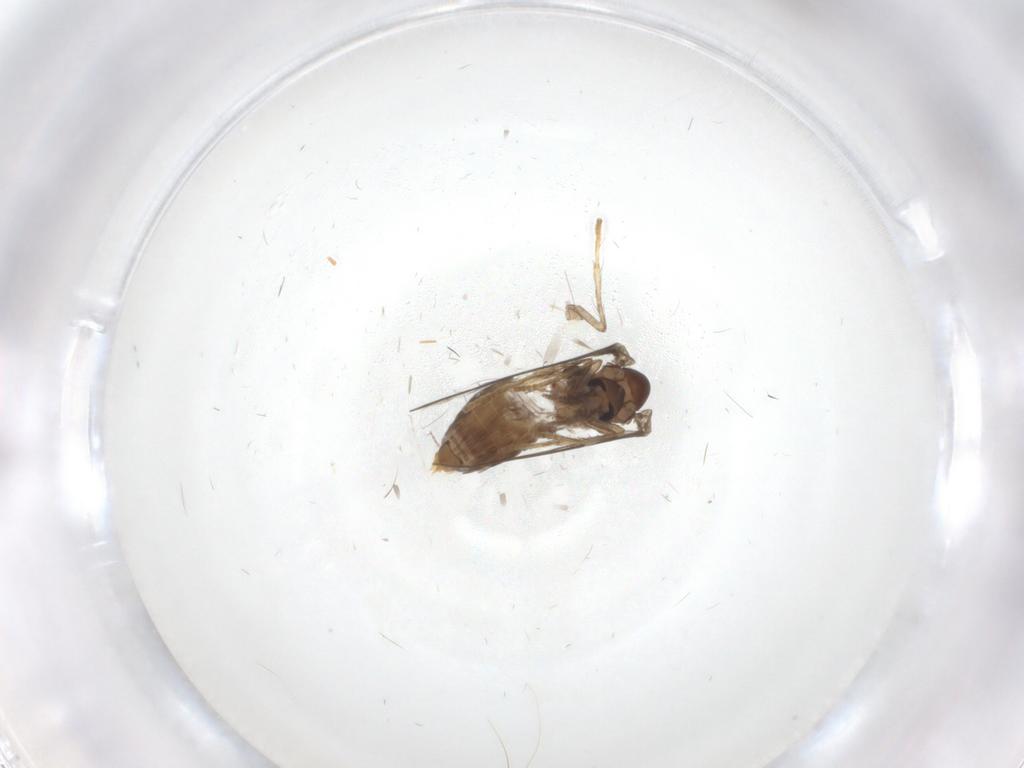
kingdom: Animalia
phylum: Arthropoda
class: Insecta
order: Diptera
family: Psychodidae
